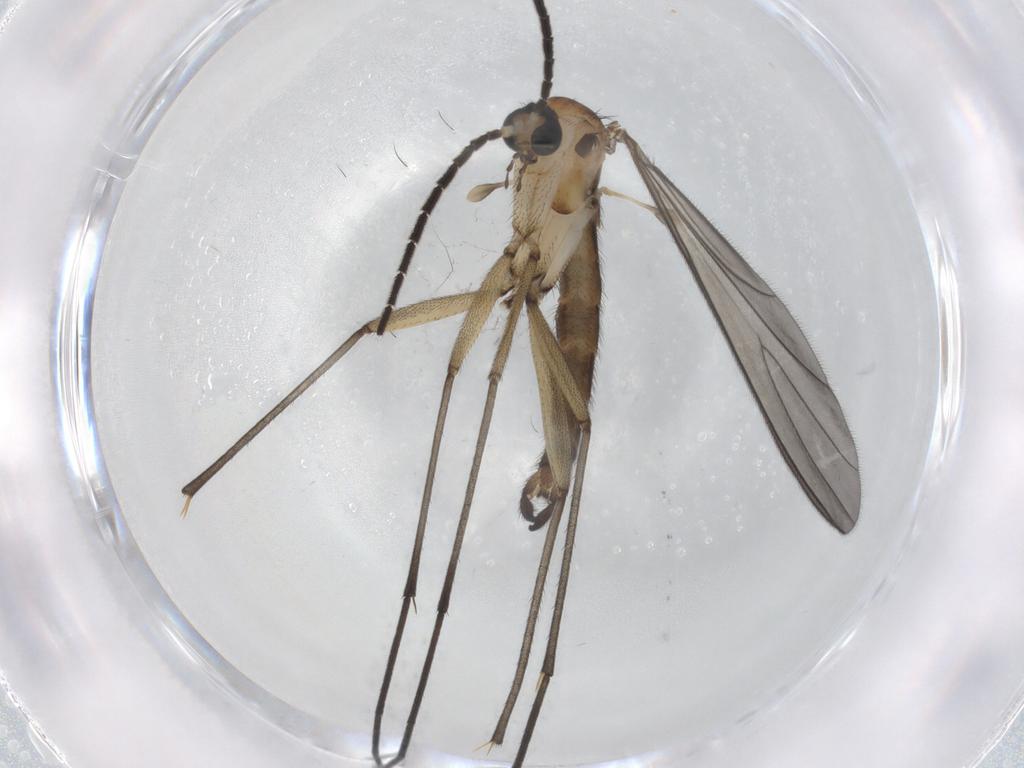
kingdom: Animalia
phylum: Arthropoda
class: Insecta
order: Diptera
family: Sciaridae
